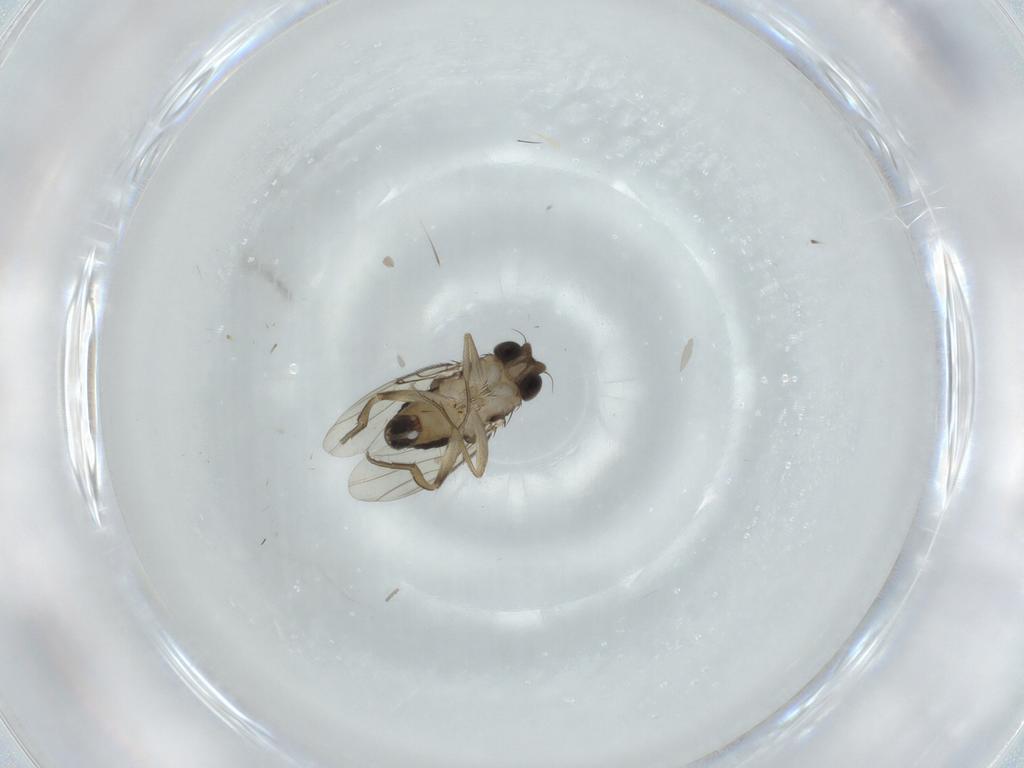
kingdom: Animalia
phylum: Arthropoda
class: Insecta
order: Diptera
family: Phoridae
